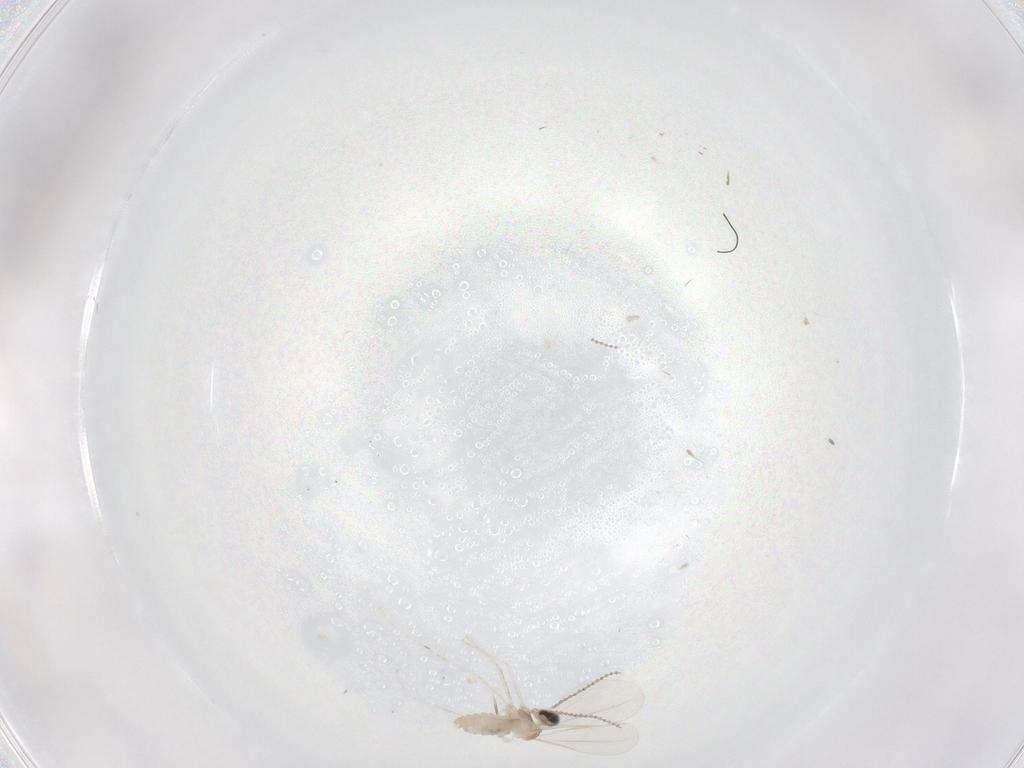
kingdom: Animalia
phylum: Arthropoda
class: Insecta
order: Diptera
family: Cecidomyiidae
